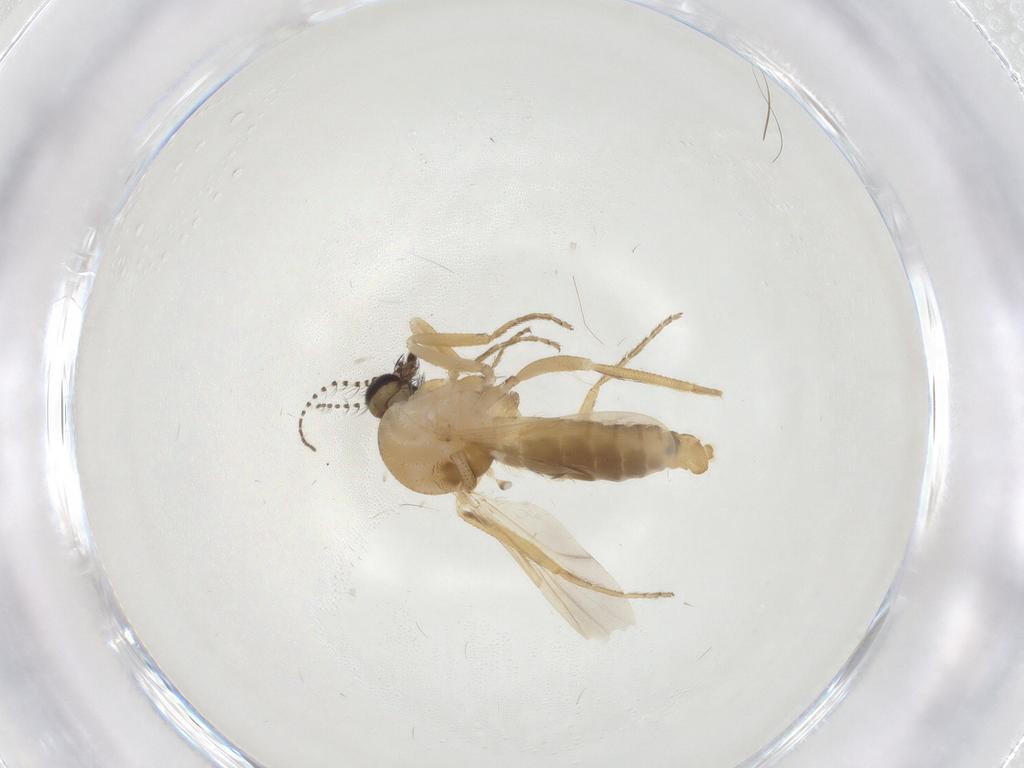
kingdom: Animalia
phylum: Arthropoda
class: Insecta
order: Diptera
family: Ceratopogonidae
